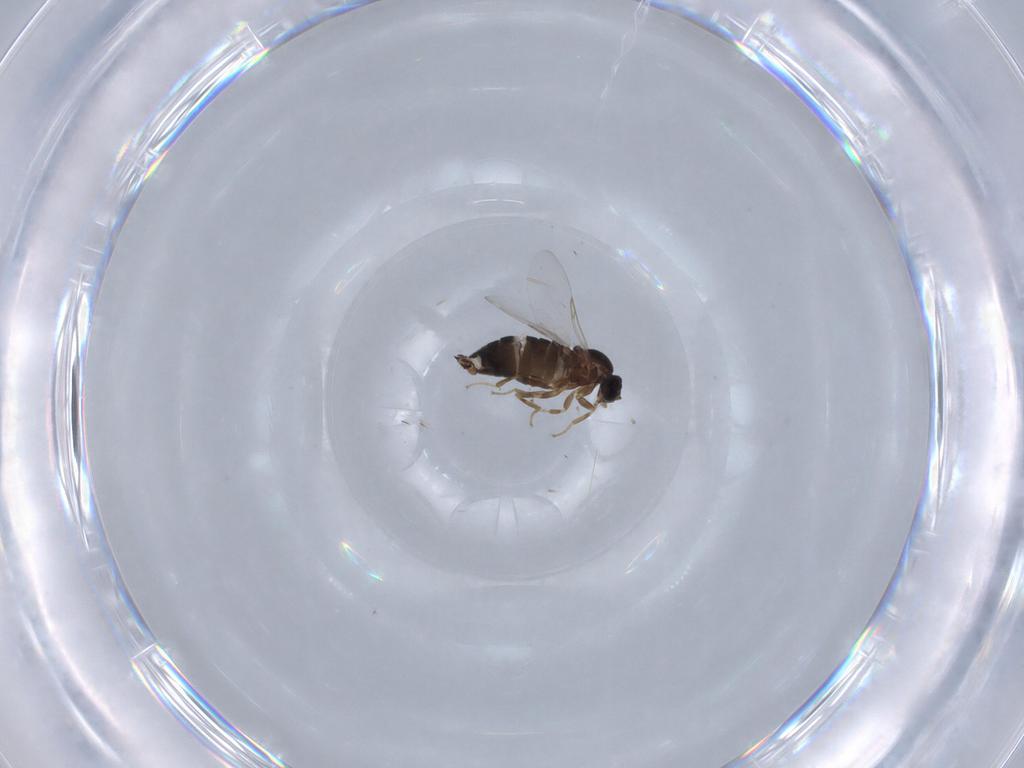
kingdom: Animalia
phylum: Arthropoda
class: Insecta
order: Diptera
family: Scatopsidae
